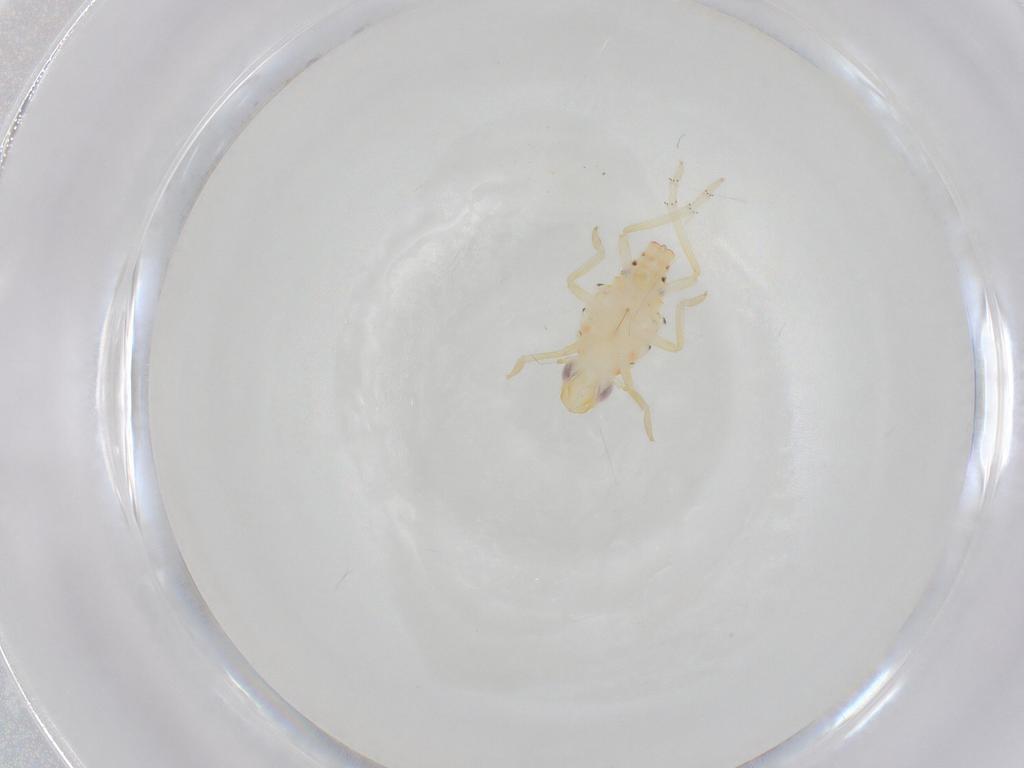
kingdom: Animalia
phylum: Arthropoda
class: Insecta
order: Hemiptera
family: Tropiduchidae
